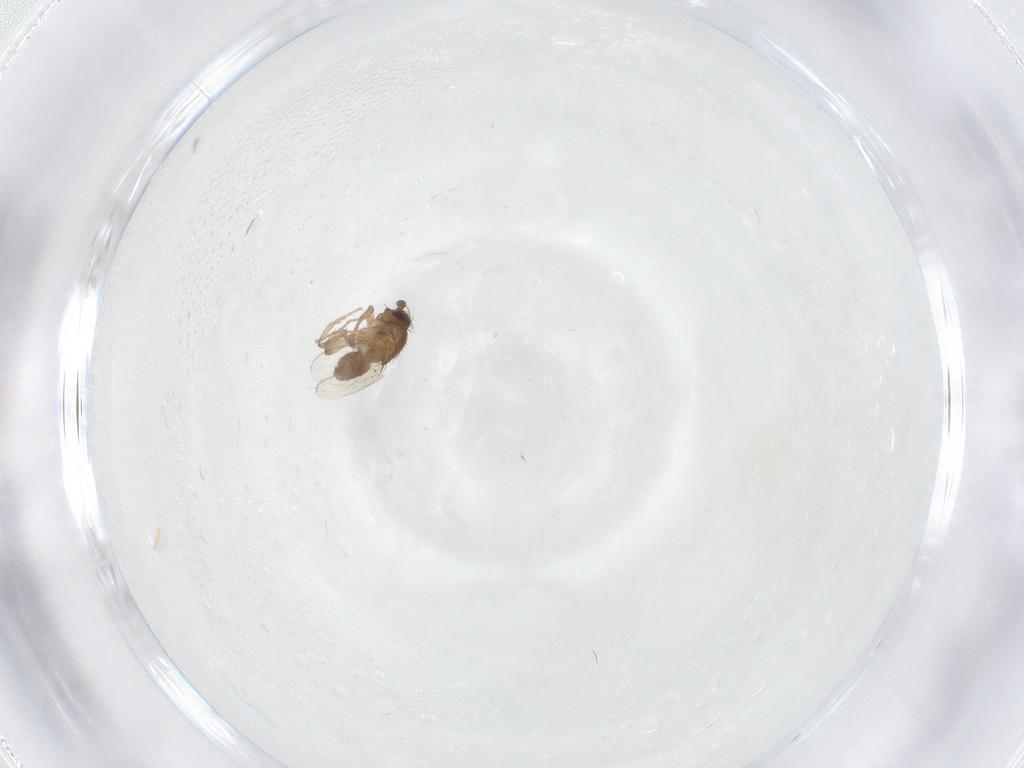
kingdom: Animalia
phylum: Arthropoda
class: Insecta
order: Diptera
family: Sphaeroceridae
